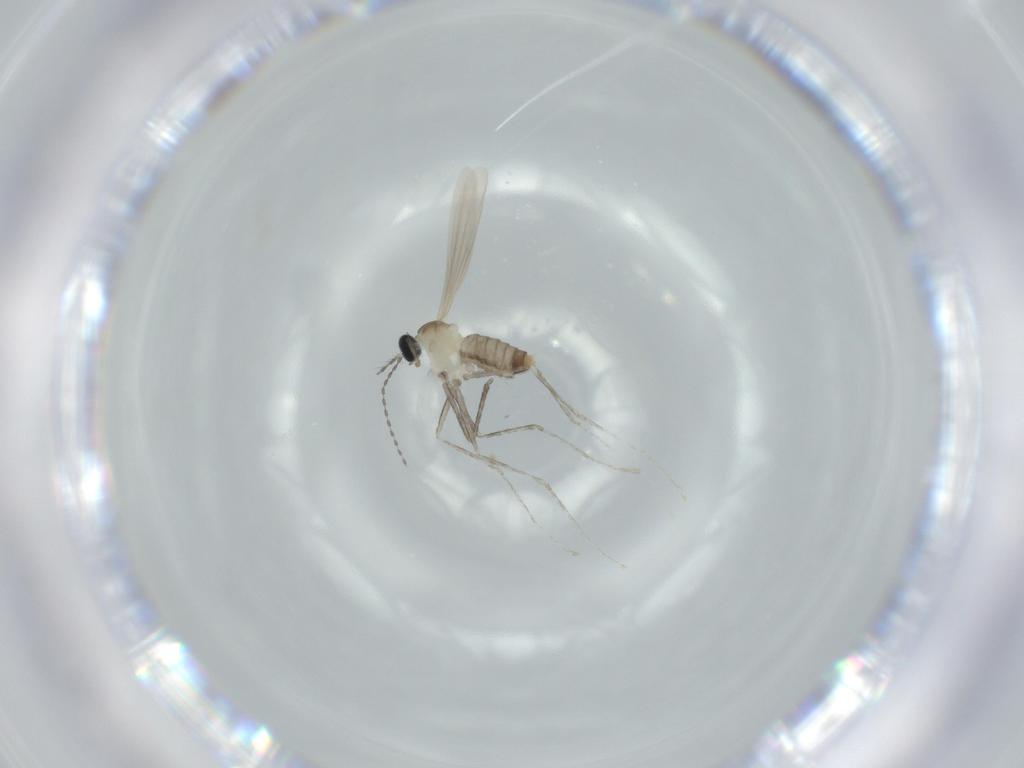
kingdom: Animalia
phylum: Arthropoda
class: Insecta
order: Diptera
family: Cecidomyiidae
